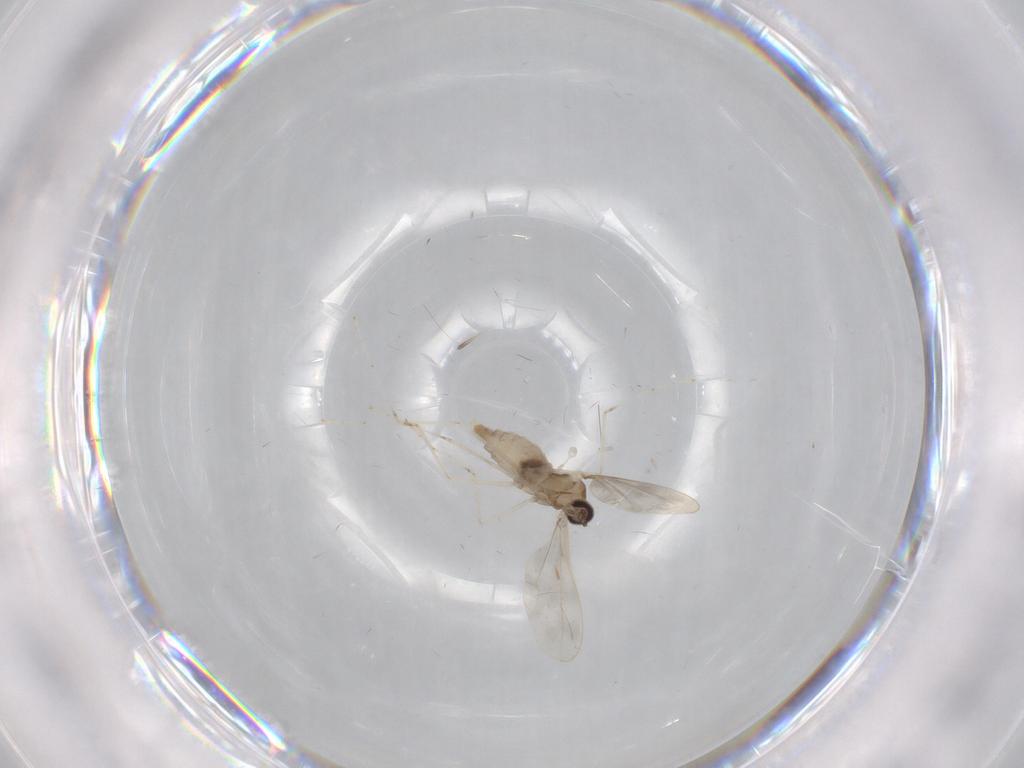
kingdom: Animalia
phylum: Arthropoda
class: Insecta
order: Diptera
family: Cecidomyiidae
